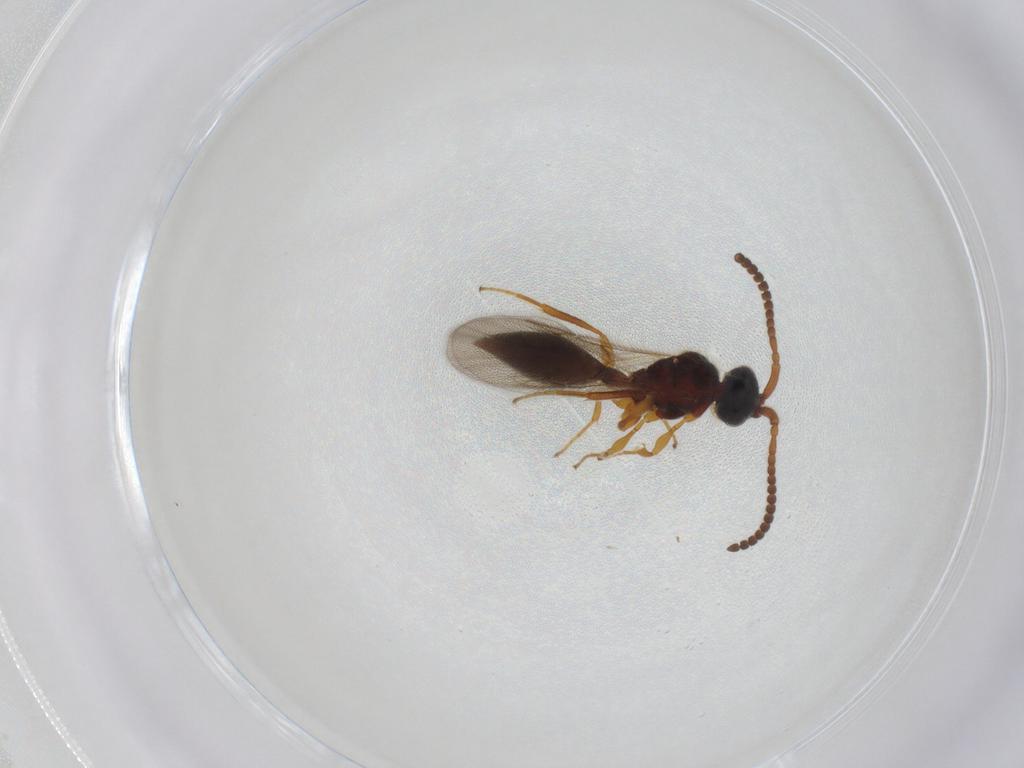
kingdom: Animalia
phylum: Arthropoda
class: Insecta
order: Hymenoptera
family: Diapriidae
